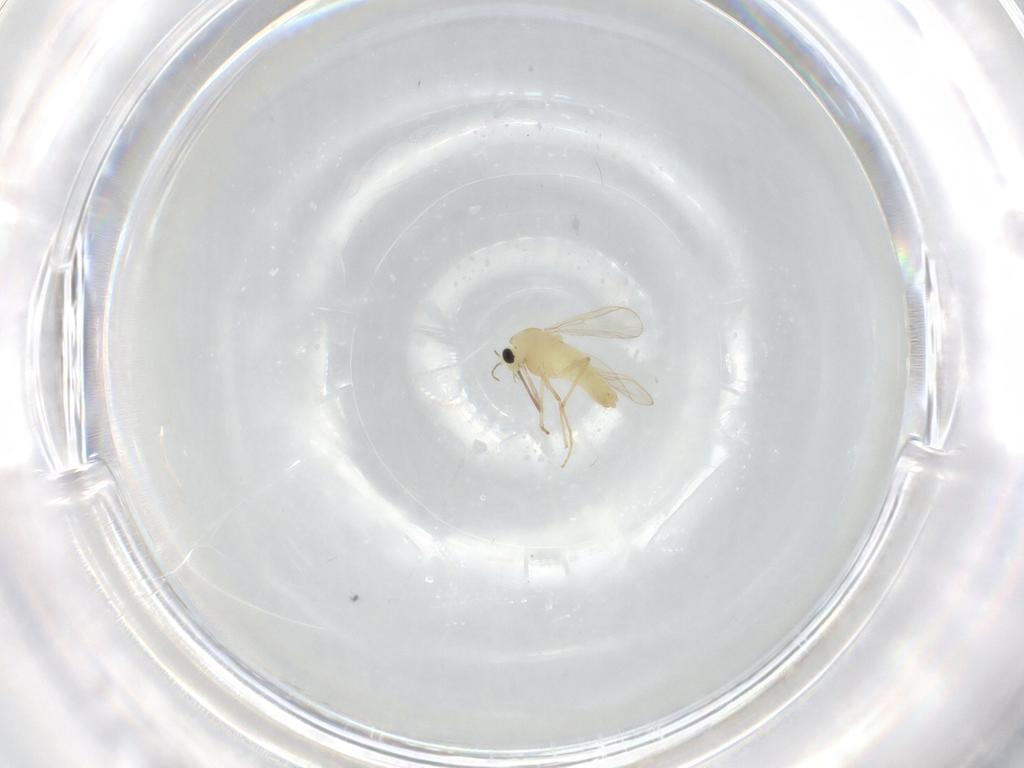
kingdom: Animalia
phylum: Arthropoda
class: Insecta
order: Diptera
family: Chironomidae
